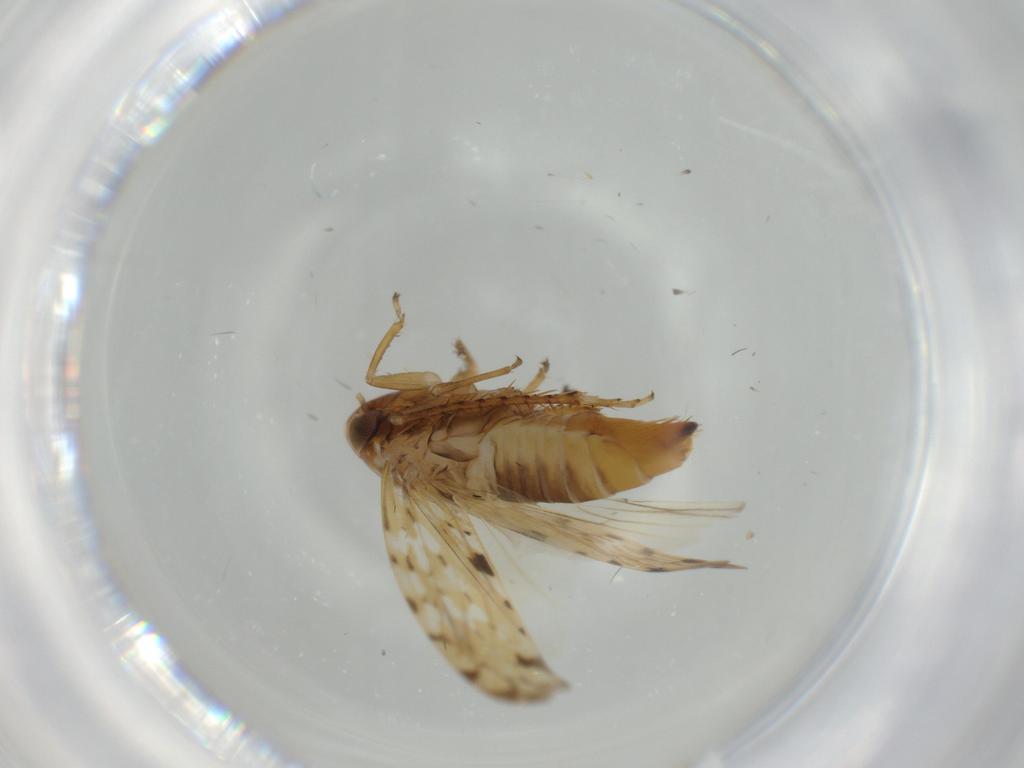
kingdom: Animalia
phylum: Arthropoda
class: Insecta
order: Hemiptera
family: Cicadellidae
